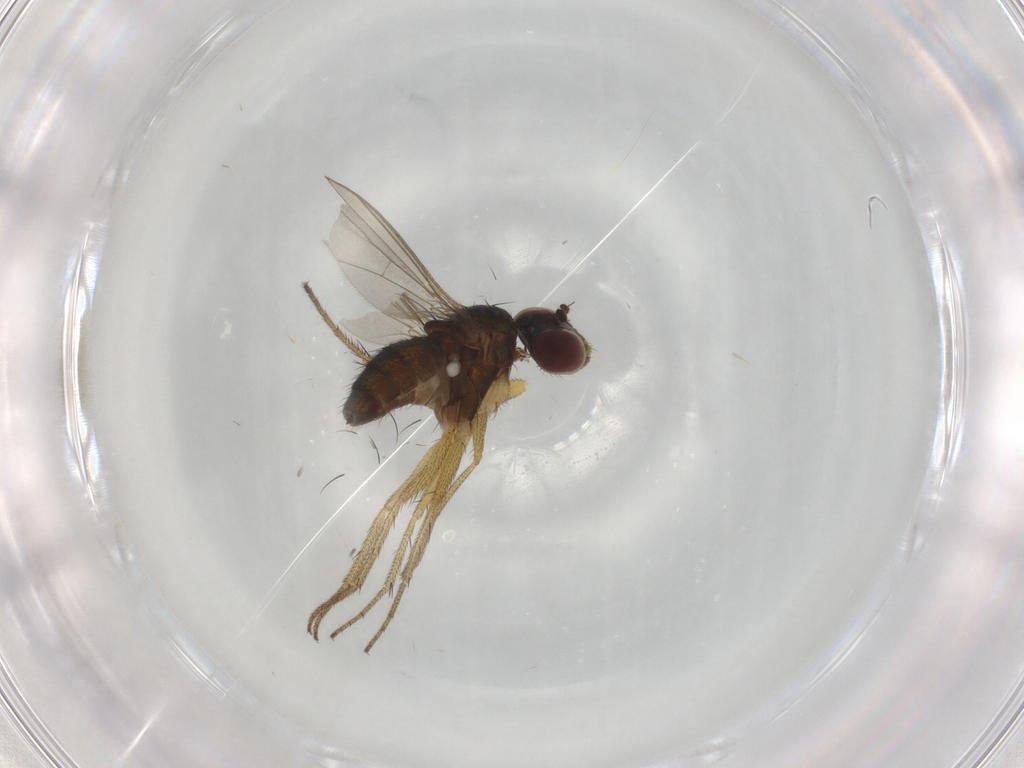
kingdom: Animalia
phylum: Arthropoda
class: Insecta
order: Diptera
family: Dolichopodidae
